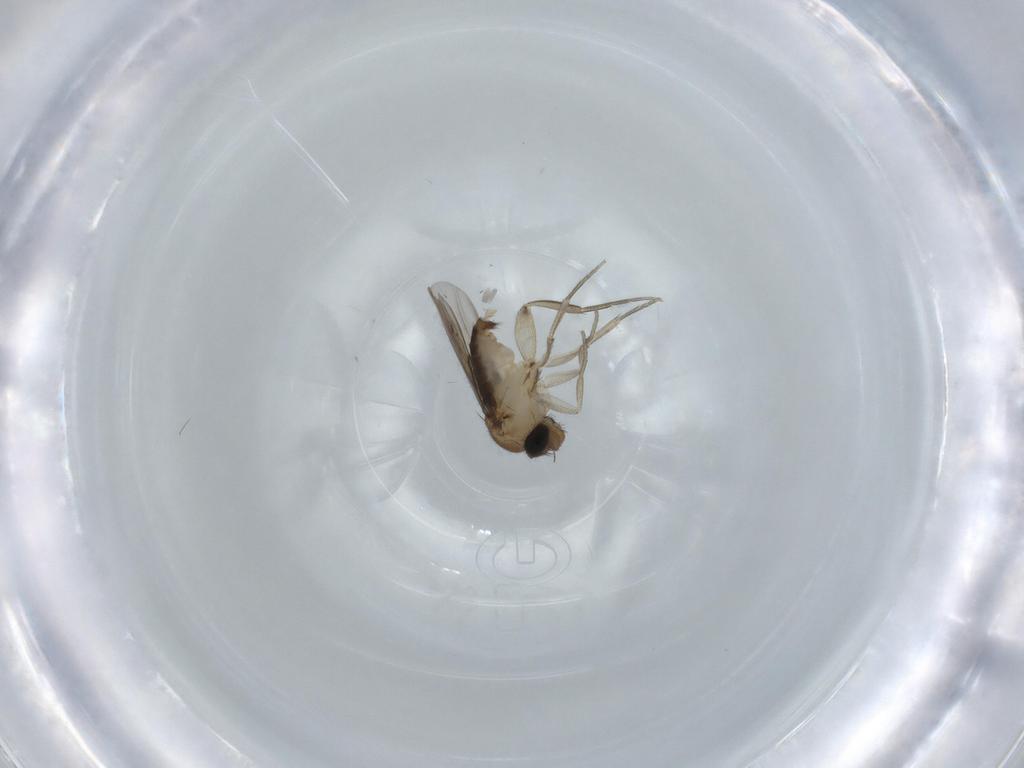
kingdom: Animalia
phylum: Arthropoda
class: Insecta
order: Diptera
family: Phoridae
